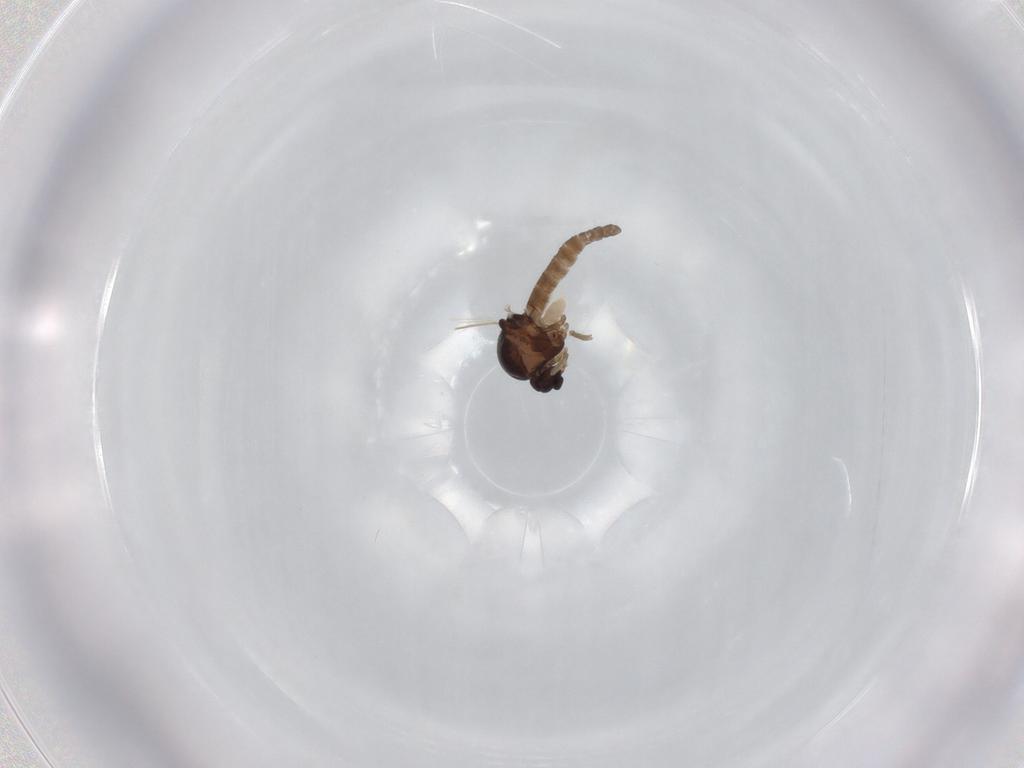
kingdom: Animalia
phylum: Arthropoda
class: Insecta
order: Diptera
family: Ceratopogonidae
